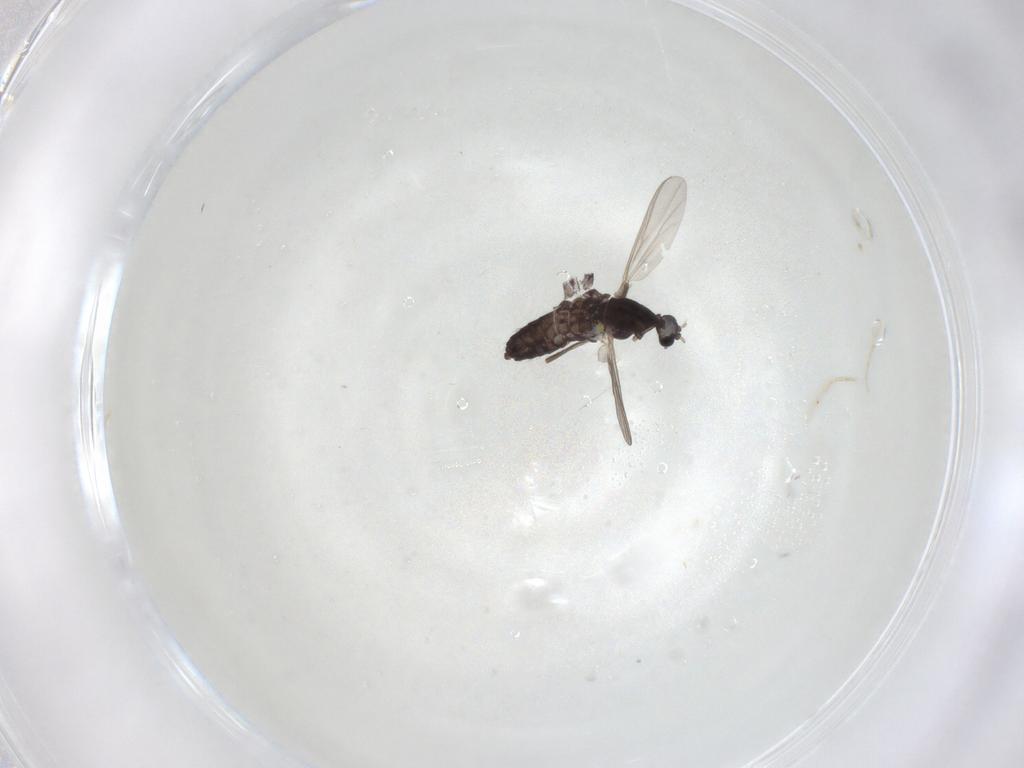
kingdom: Animalia
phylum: Arthropoda
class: Insecta
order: Diptera
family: Chironomidae
